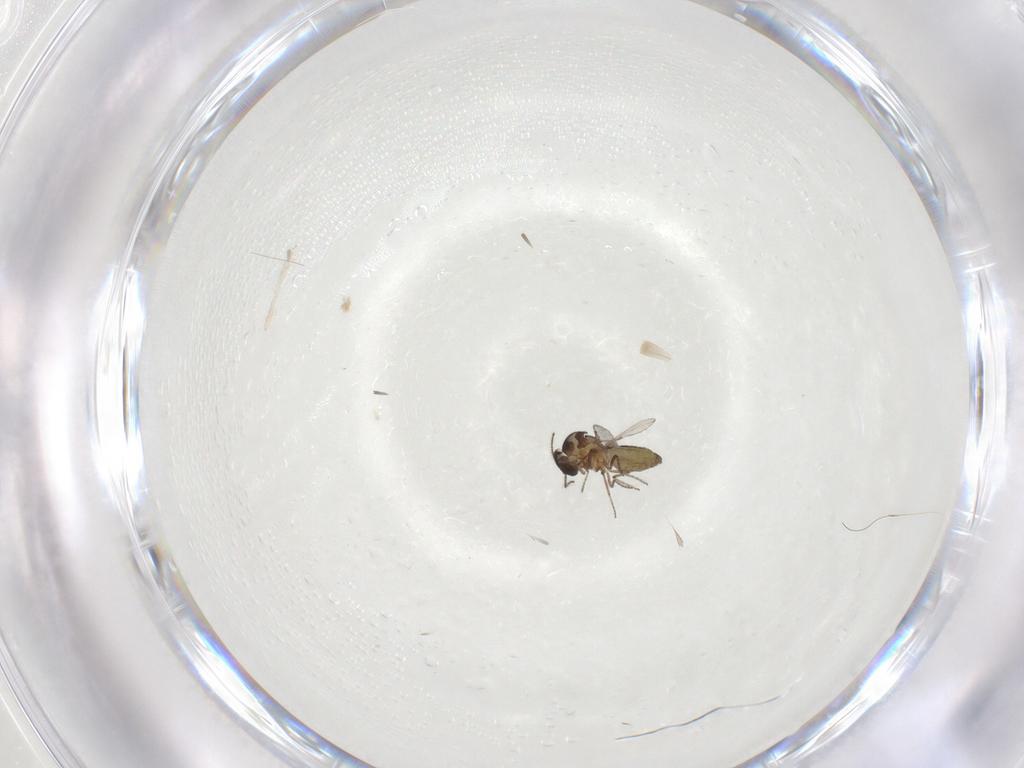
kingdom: Animalia
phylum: Arthropoda
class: Insecta
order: Diptera
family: Ceratopogonidae
